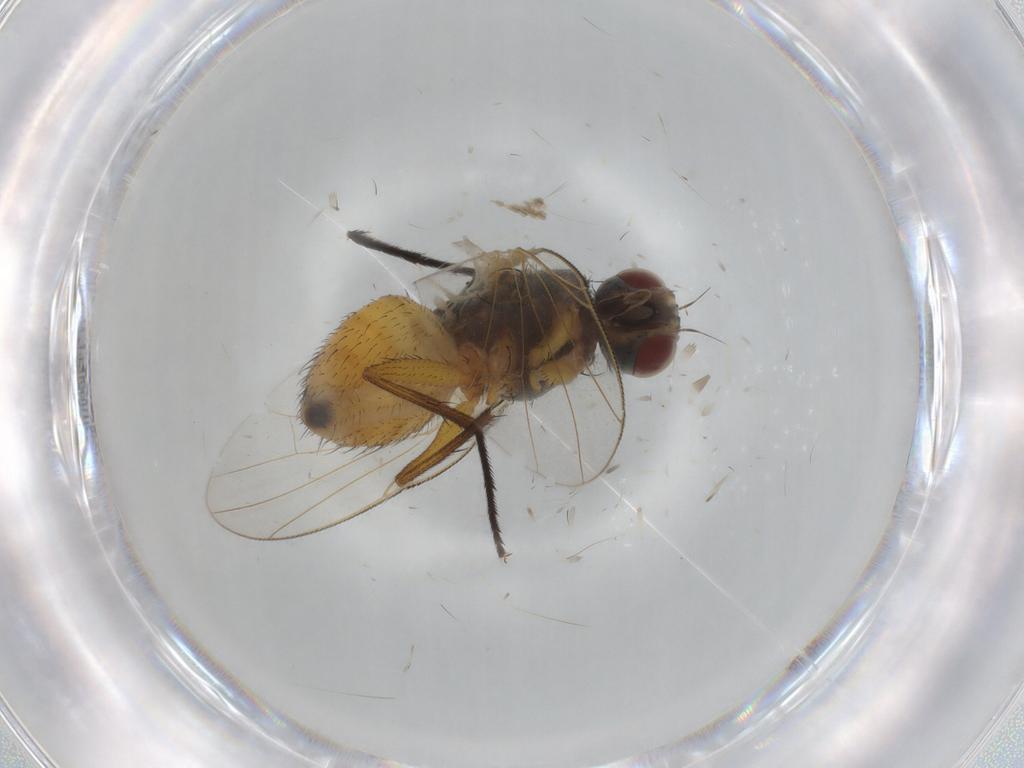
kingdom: Animalia
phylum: Arthropoda
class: Insecta
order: Diptera
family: Muscidae
